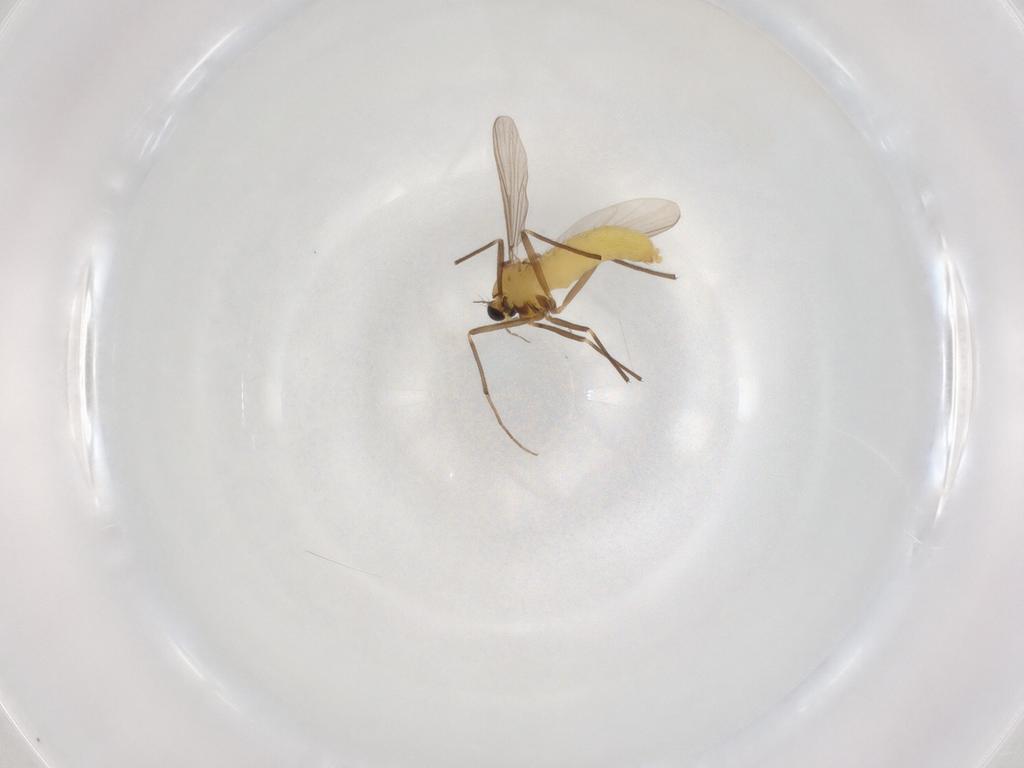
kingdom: Animalia
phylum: Arthropoda
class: Insecta
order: Diptera
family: Chironomidae
